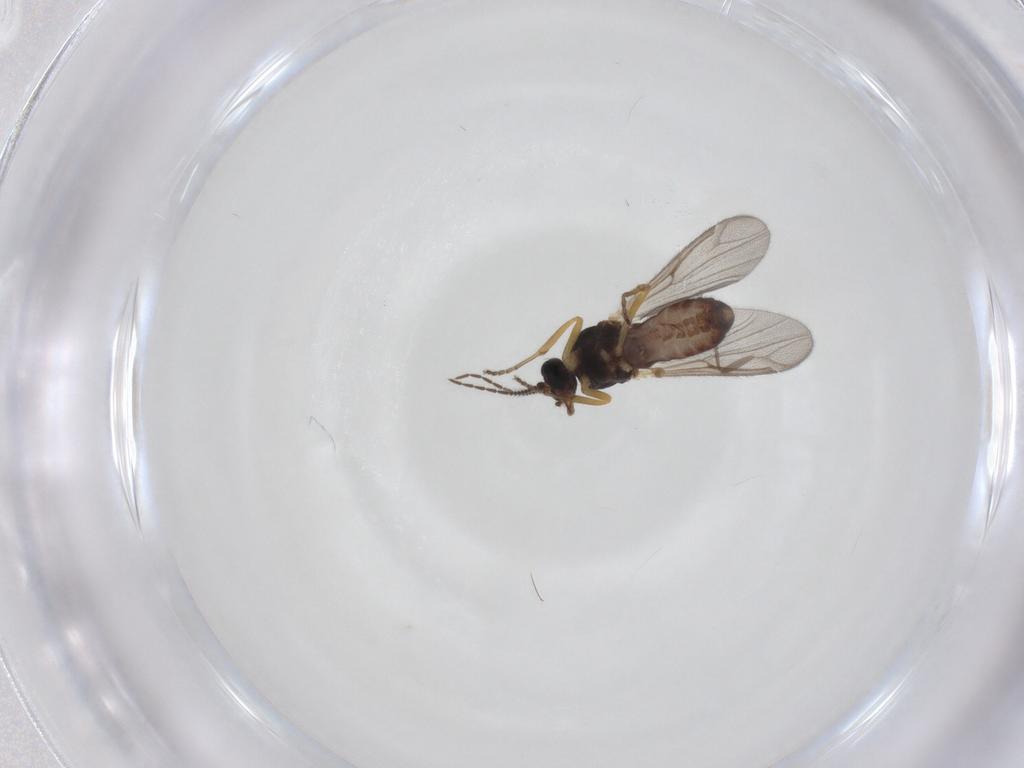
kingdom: Animalia
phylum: Arthropoda
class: Insecta
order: Diptera
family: Ceratopogonidae
